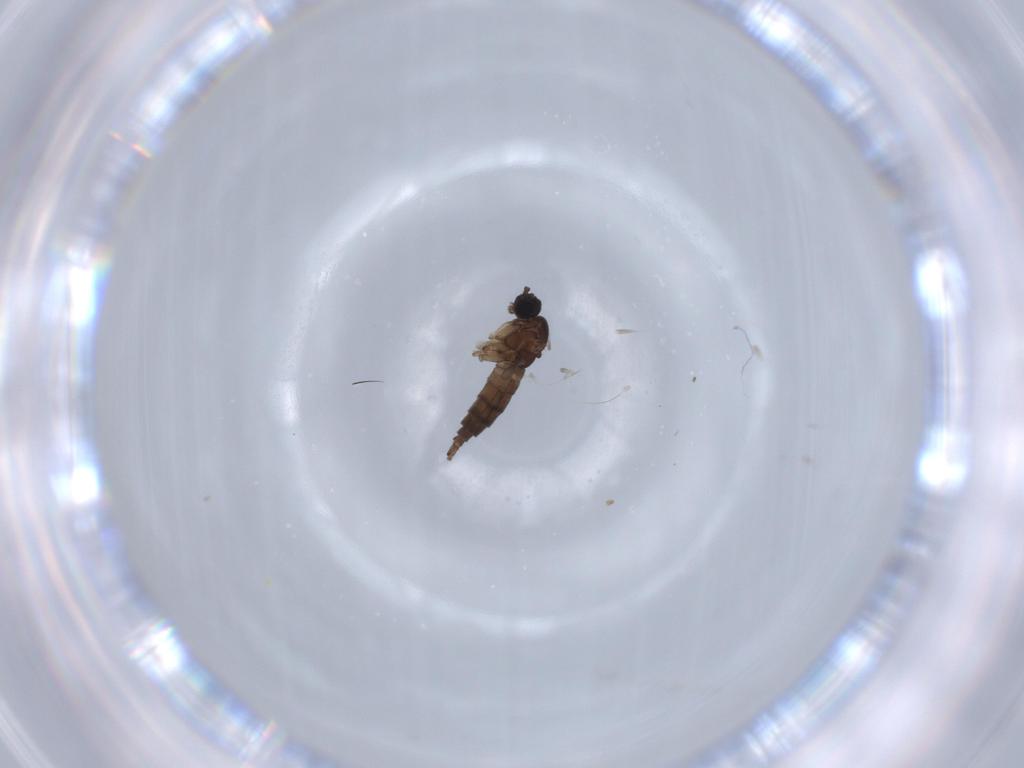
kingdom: Animalia
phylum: Arthropoda
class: Insecta
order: Diptera
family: Sciaridae
